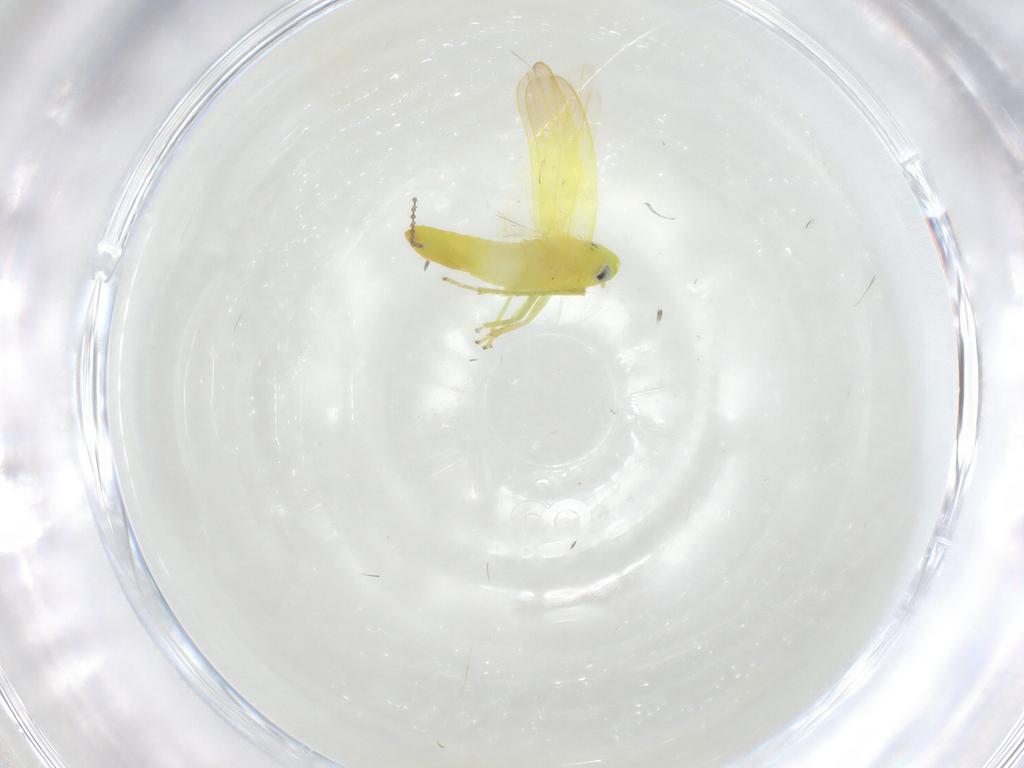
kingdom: Animalia
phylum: Arthropoda
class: Insecta
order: Hemiptera
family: Cicadellidae
